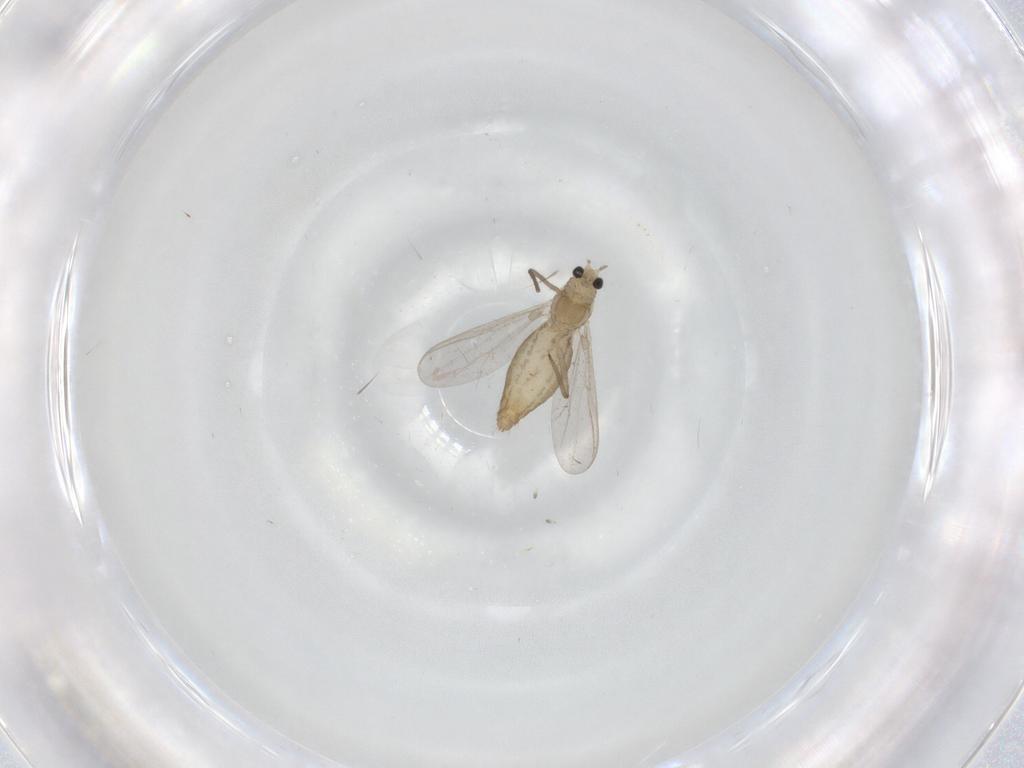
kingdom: Animalia
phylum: Arthropoda
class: Insecta
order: Diptera
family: Chironomidae
